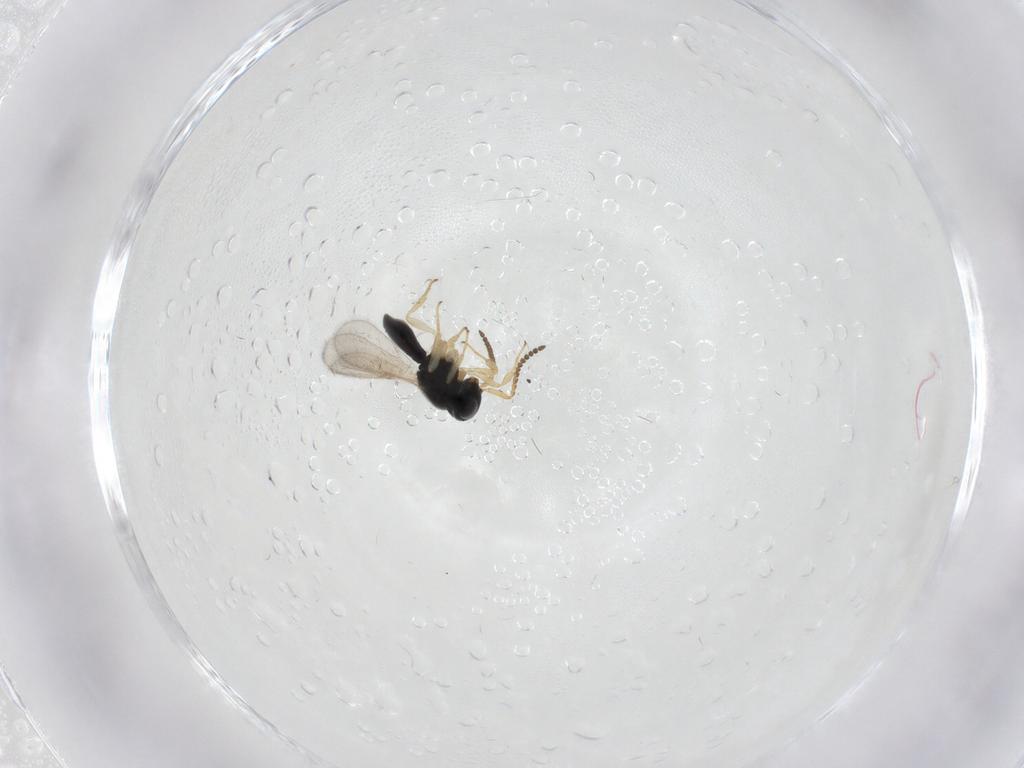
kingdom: Animalia
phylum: Arthropoda
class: Insecta
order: Hymenoptera
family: Scelionidae
